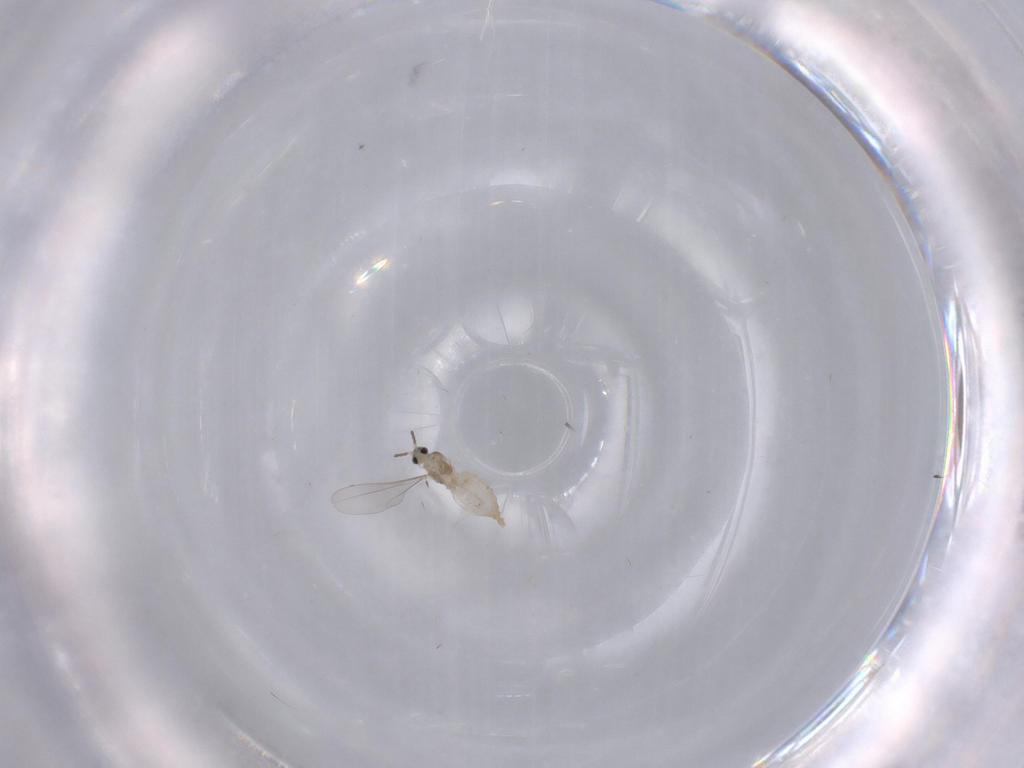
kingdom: Animalia
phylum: Arthropoda
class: Insecta
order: Diptera
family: Cecidomyiidae
